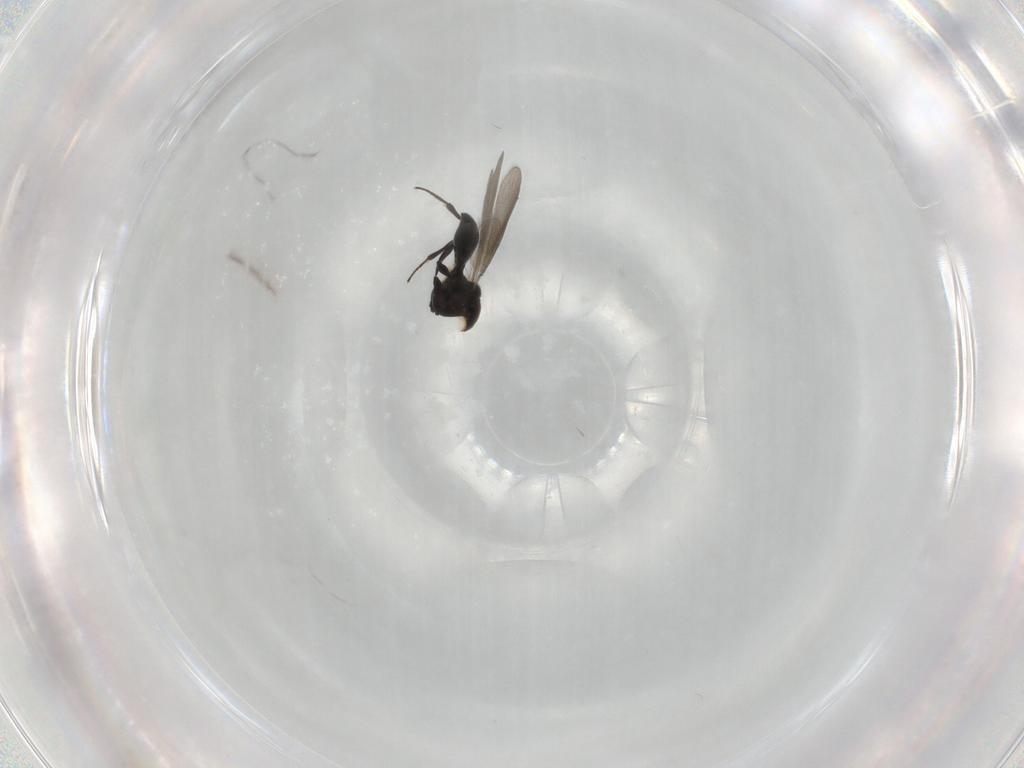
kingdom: Animalia
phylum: Arthropoda
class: Insecta
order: Hymenoptera
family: Platygastridae
